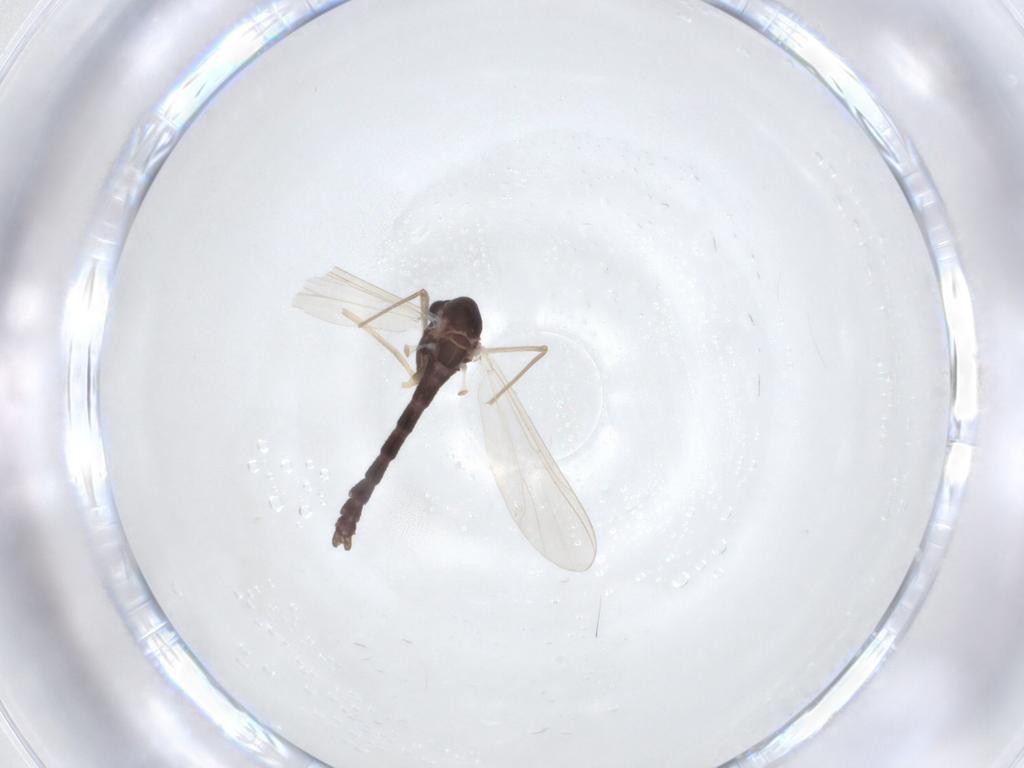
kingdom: Animalia
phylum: Arthropoda
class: Insecta
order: Diptera
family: Chironomidae
